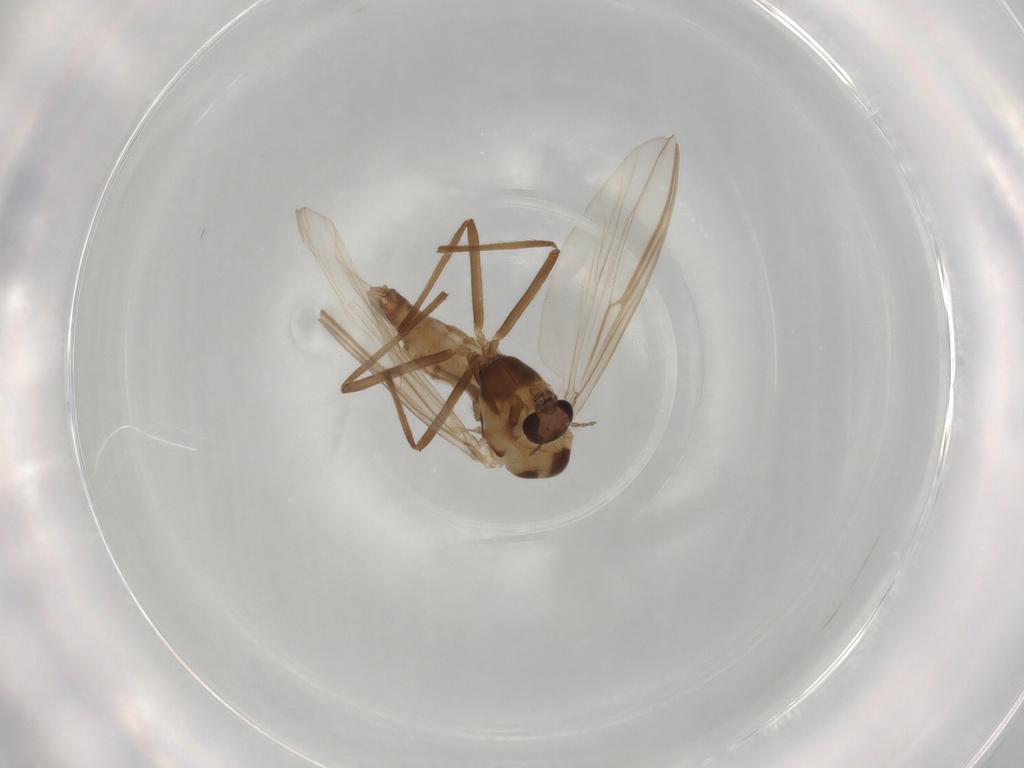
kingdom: Animalia
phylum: Arthropoda
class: Insecta
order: Diptera
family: Chironomidae
